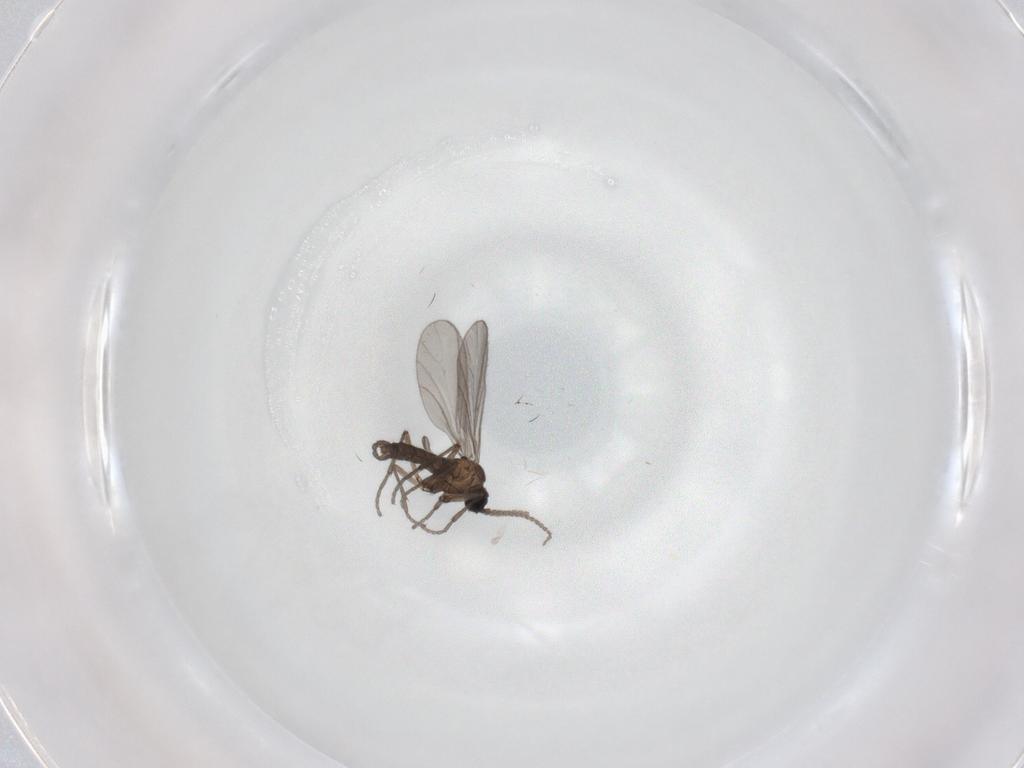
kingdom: Animalia
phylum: Arthropoda
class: Insecta
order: Diptera
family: Sciaridae
